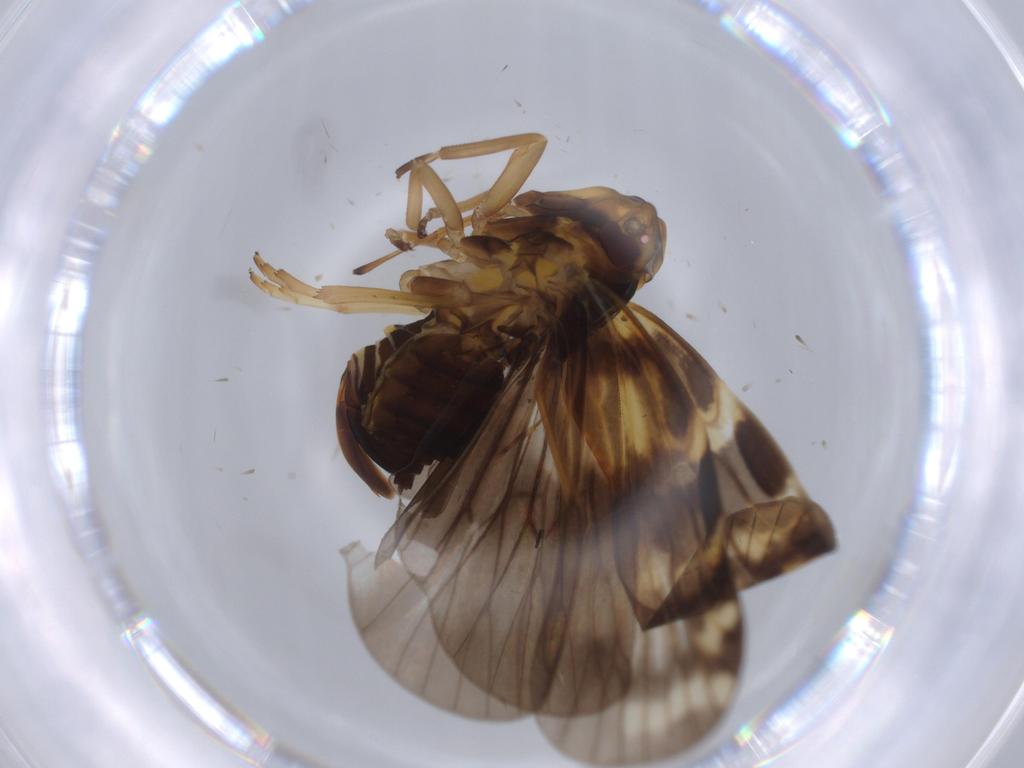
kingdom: Animalia
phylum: Arthropoda
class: Insecta
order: Hemiptera
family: Cixiidae
